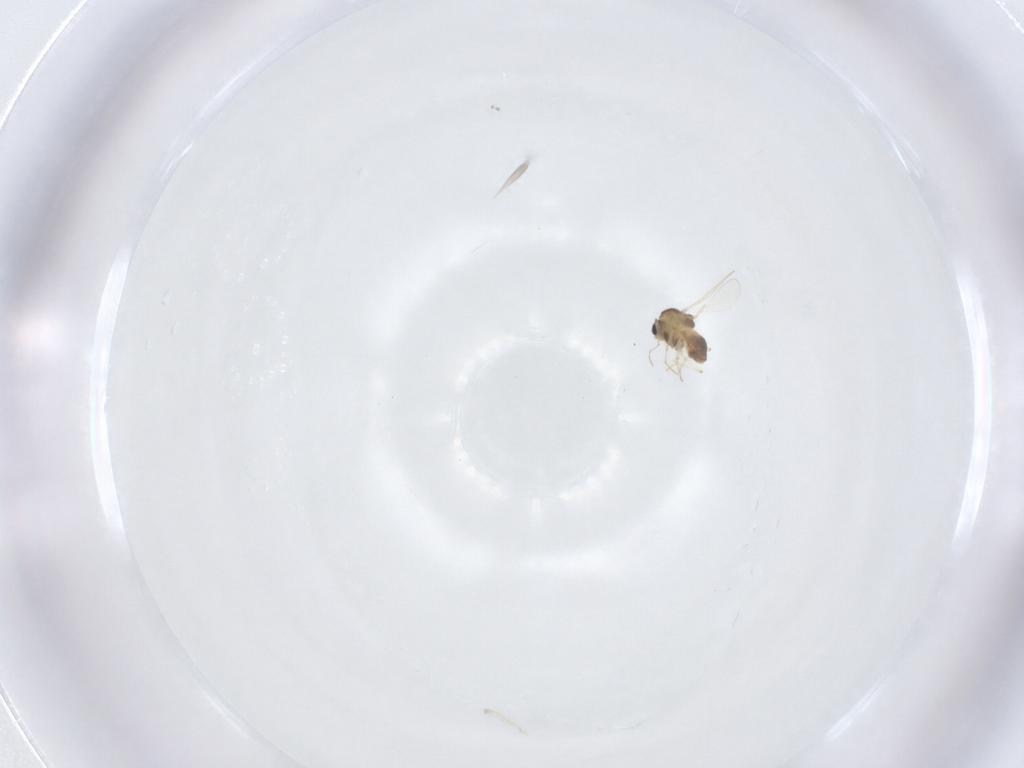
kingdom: Animalia
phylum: Arthropoda
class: Insecta
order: Diptera
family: Chironomidae
